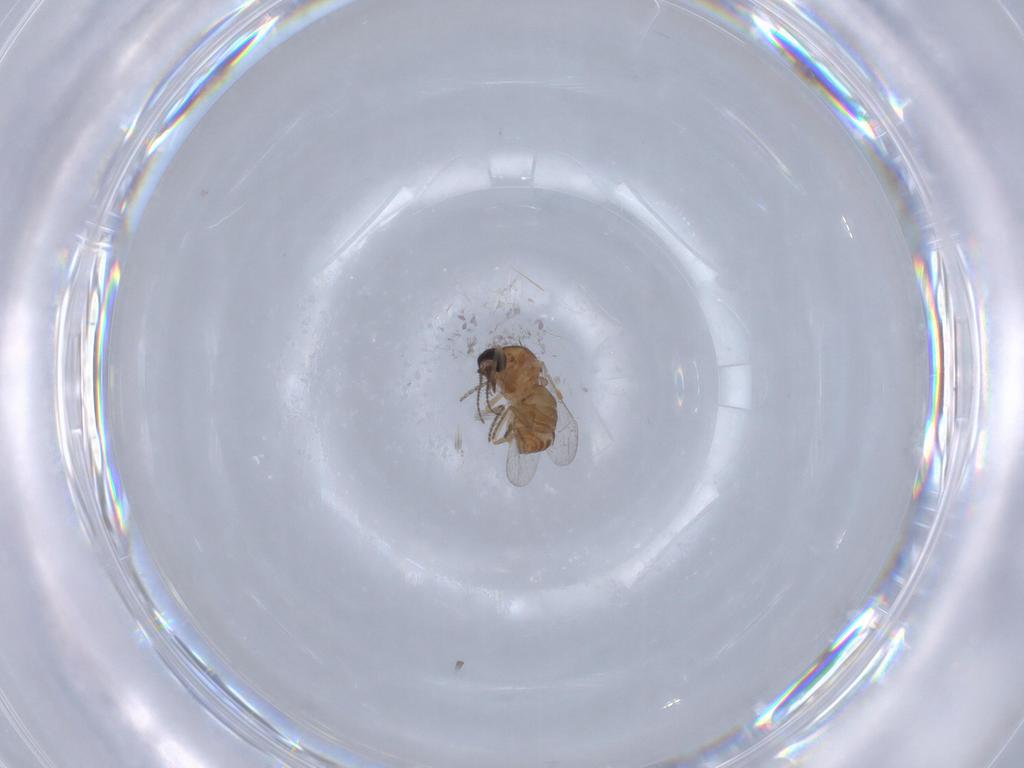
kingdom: Animalia
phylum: Arthropoda
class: Insecta
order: Diptera
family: Ceratopogonidae
